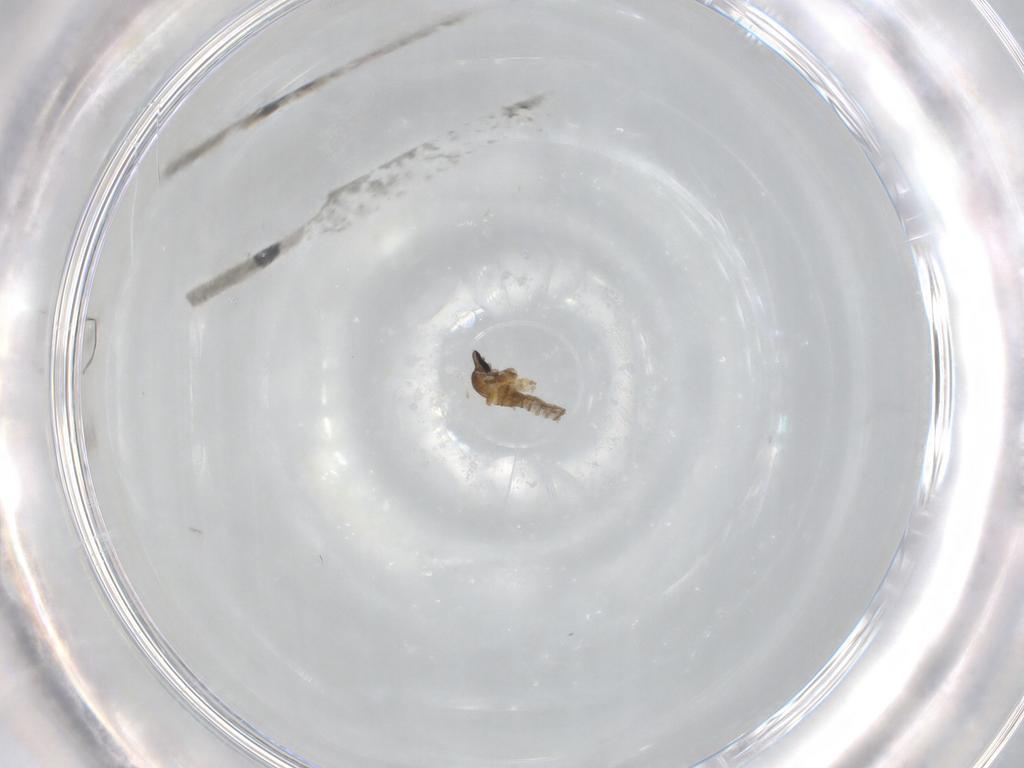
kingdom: Animalia
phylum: Arthropoda
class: Insecta
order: Diptera
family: Cecidomyiidae
